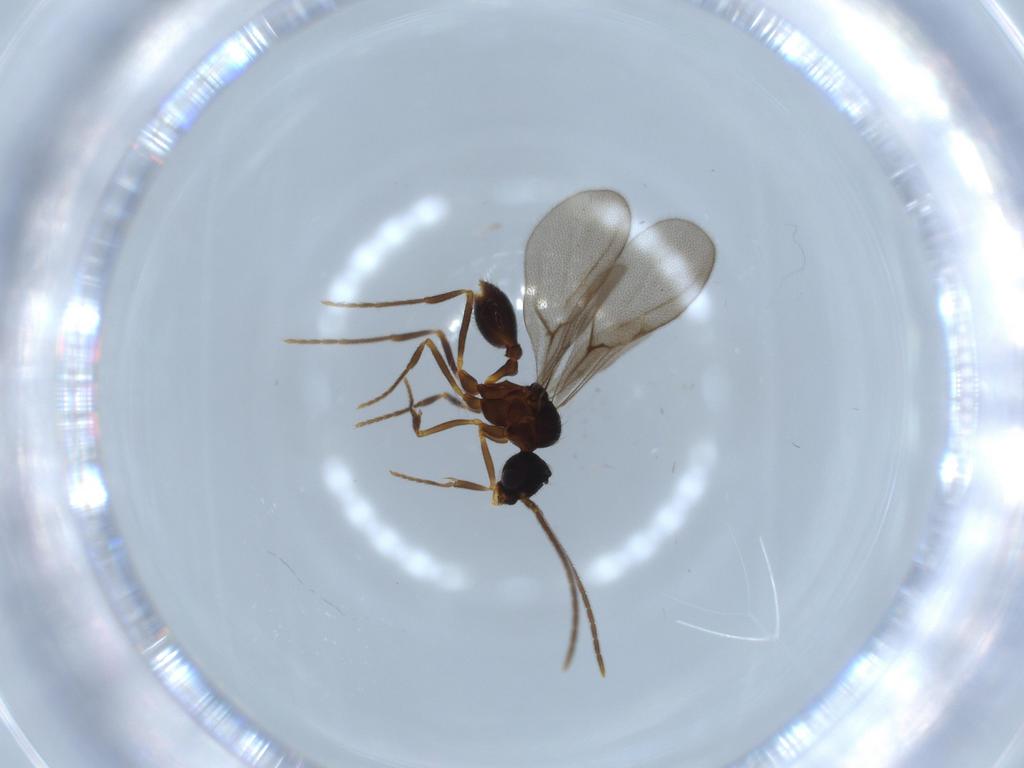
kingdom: Animalia
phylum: Arthropoda
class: Insecta
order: Hymenoptera
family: Formicidae
